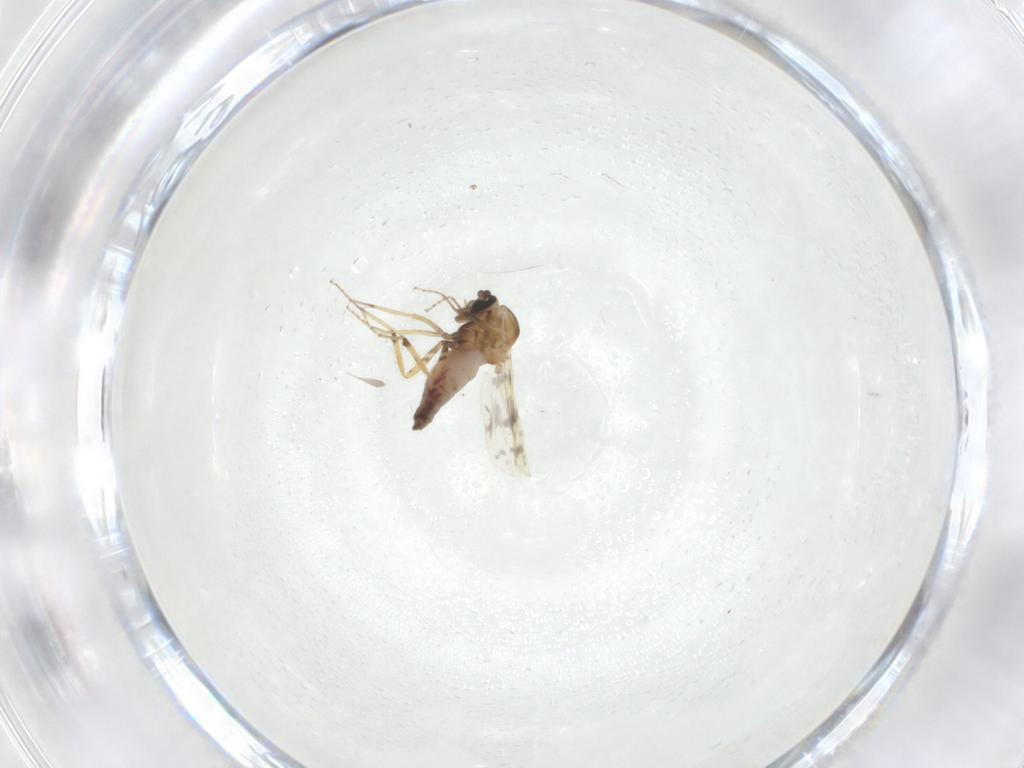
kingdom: Animalia
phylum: Arthropoda
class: Insecta
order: Diptera
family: Ceratopogonidae
